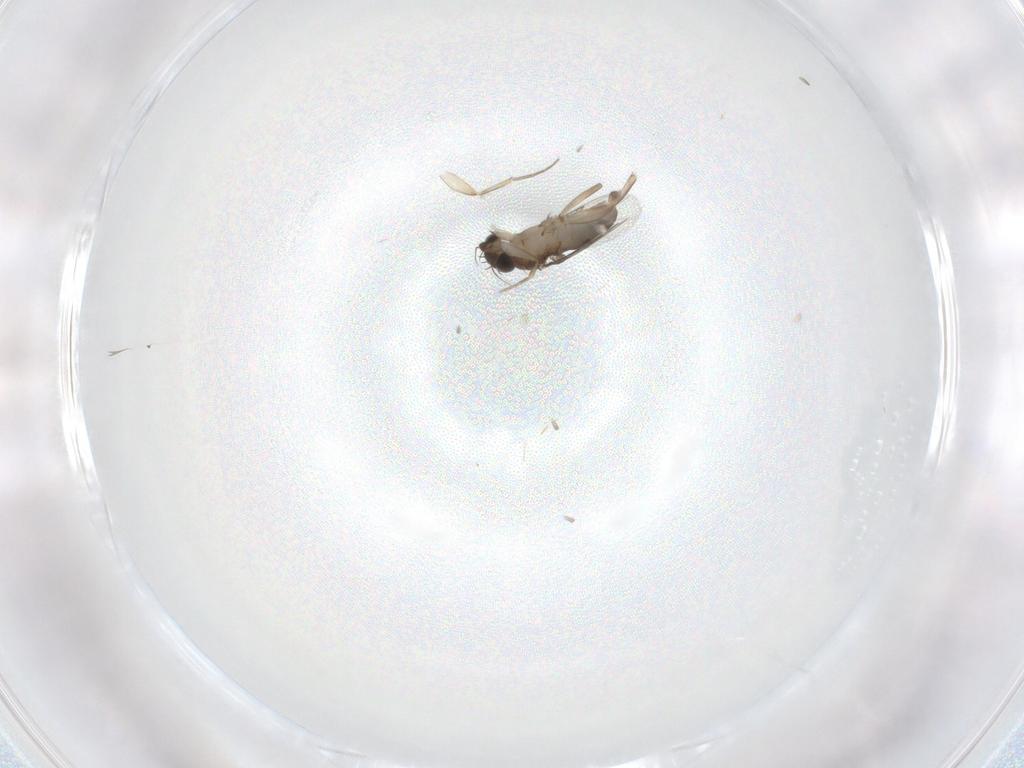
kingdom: Animalia
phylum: Arthropoda
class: Insecta
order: Diptera
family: Phoridae
